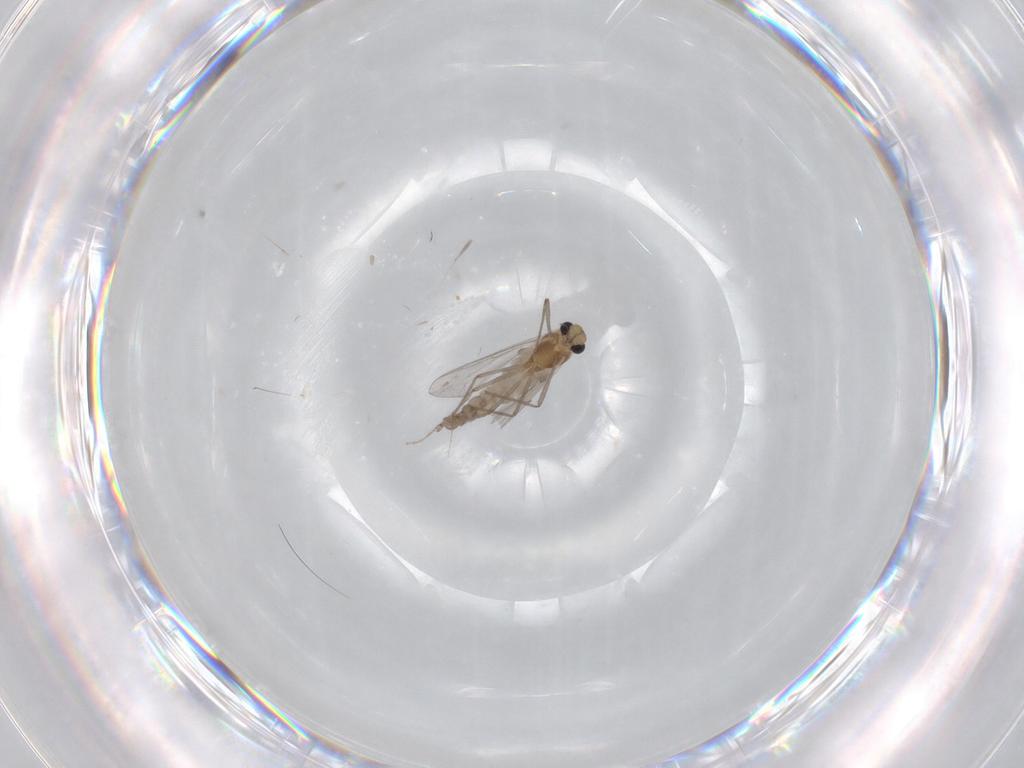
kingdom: Animalia
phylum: Arthropoda
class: Insecta
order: Diptera
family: Chironomidae
